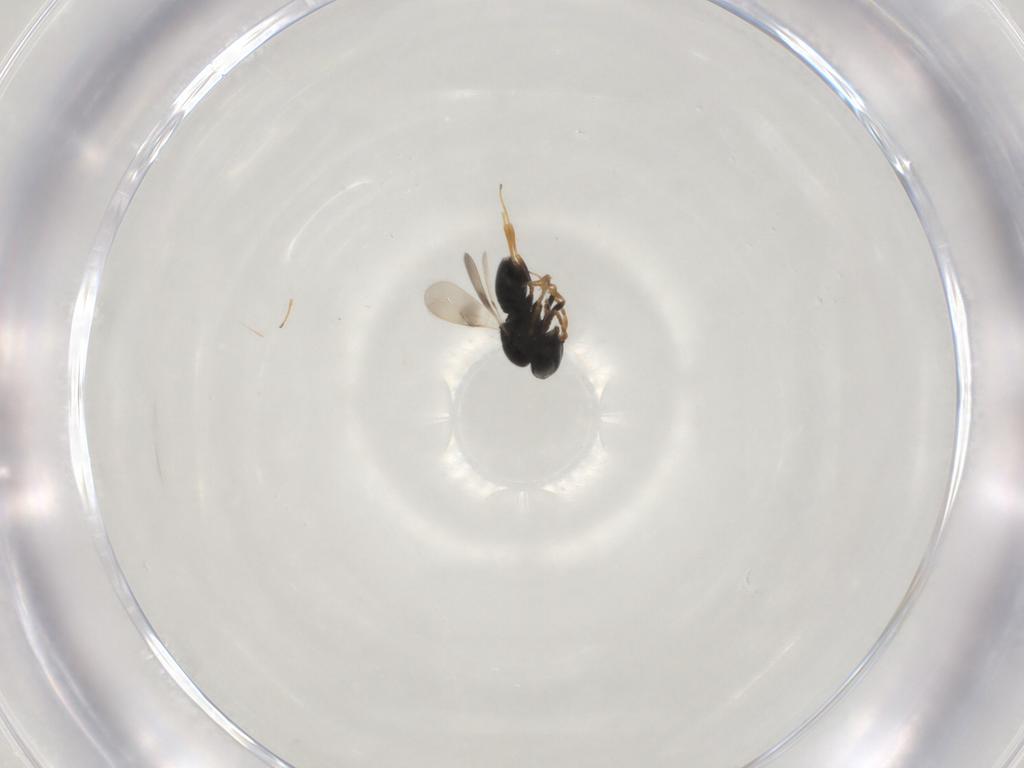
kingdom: Animalia
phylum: Arthropoda
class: Insecta
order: Hymenoptera
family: Scelionidae
